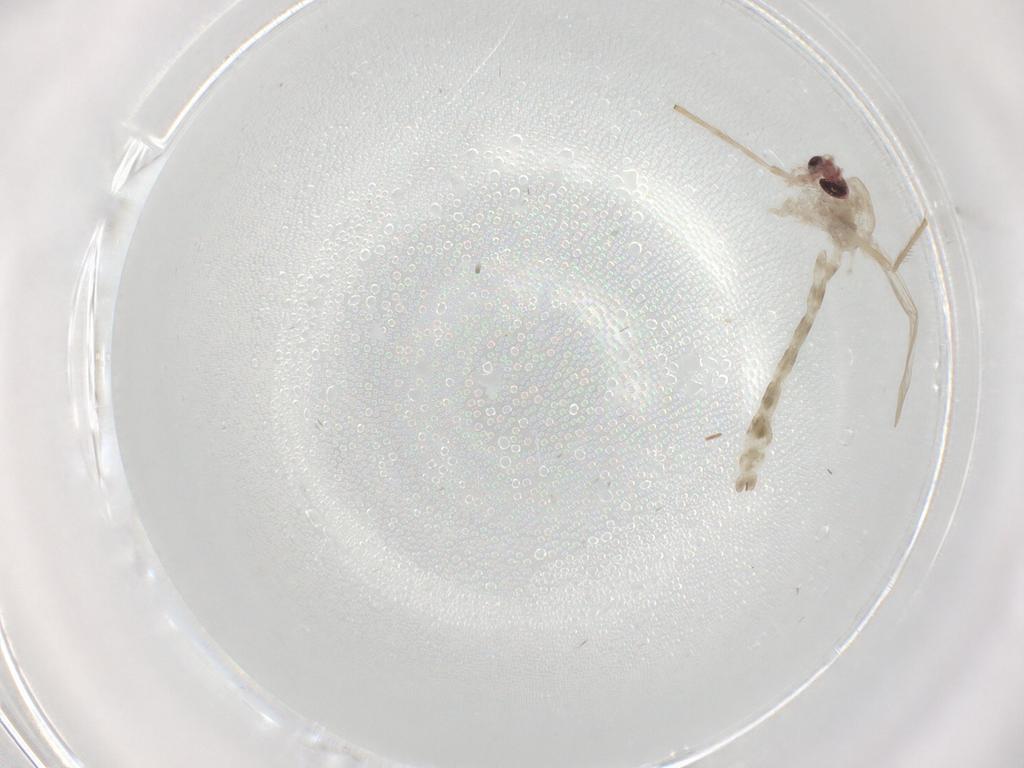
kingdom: Animalia
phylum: Arthropoda
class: Insecta
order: Diptera
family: Chironomidae
